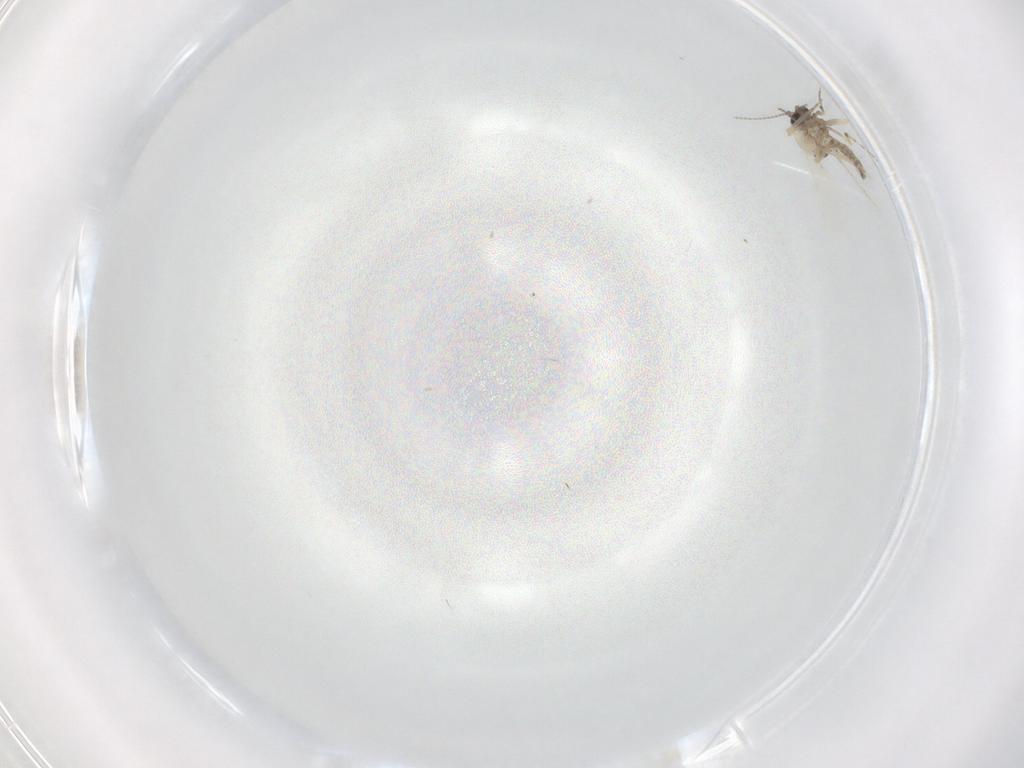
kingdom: Animalia
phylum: Arthropoda
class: Insecta
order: Diptera
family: Ceratopogonidae
